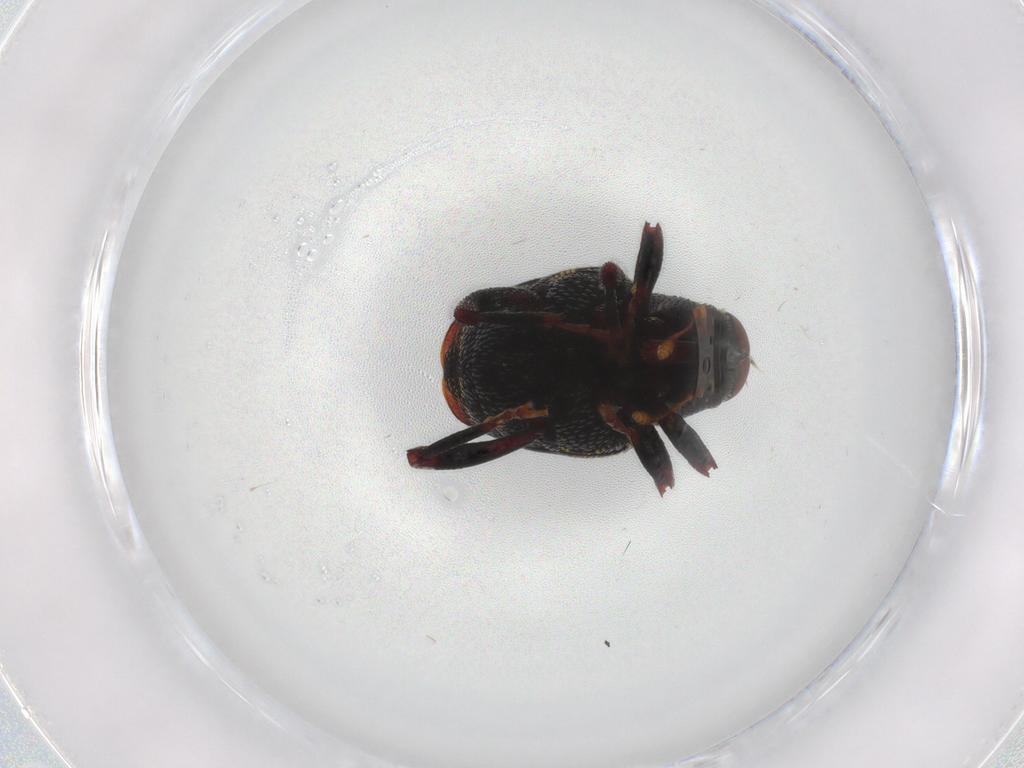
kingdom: Animalia
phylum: Arthropoda
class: Insecta
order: Coleoptera
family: Curculionidae
